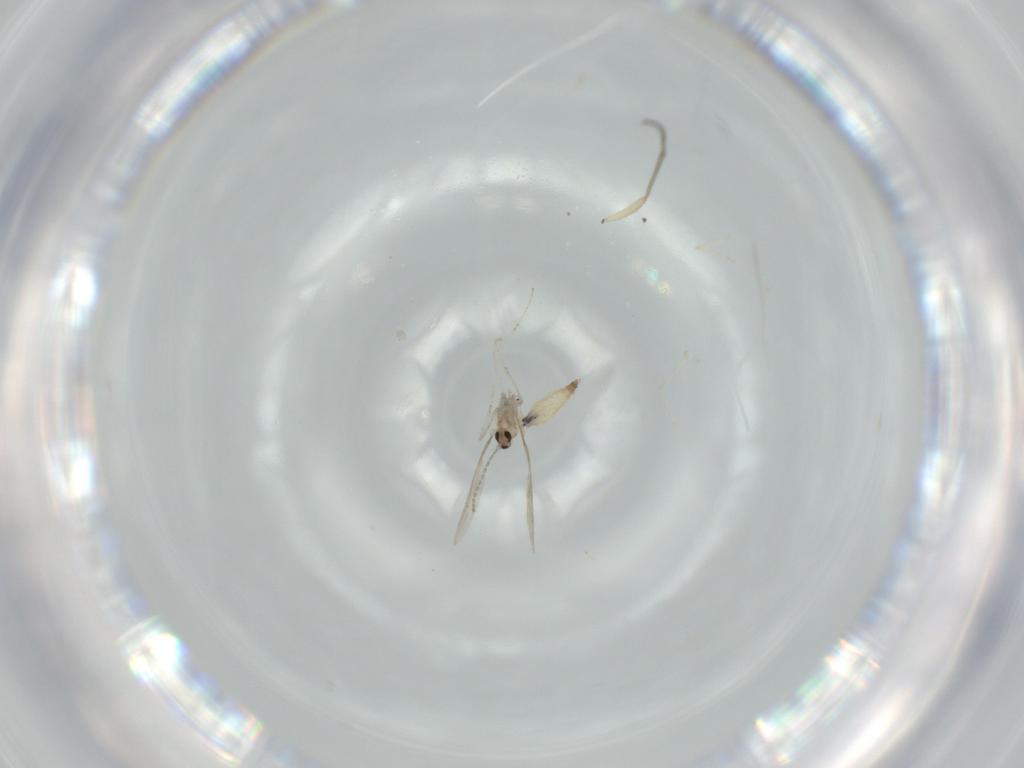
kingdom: Animalia
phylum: Arthropoda
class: Insecta
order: Diptera
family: Cecidomyiidae
